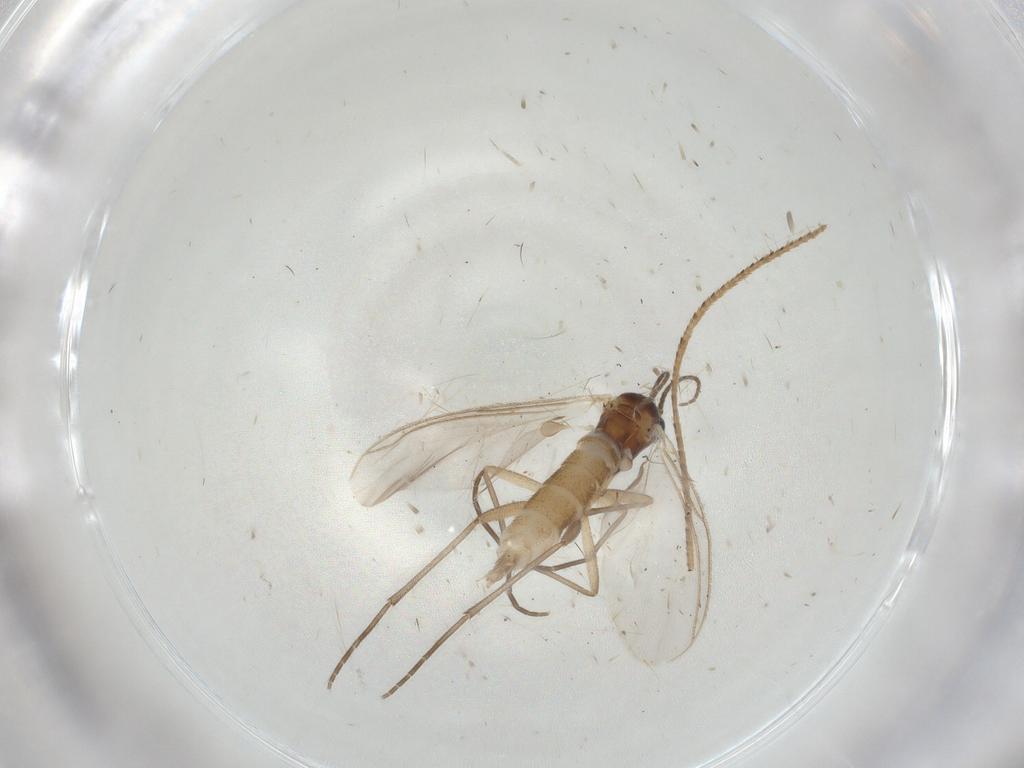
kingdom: Animalia
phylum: Arthropoda
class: Insecta
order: Diptera
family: Sciaridae
